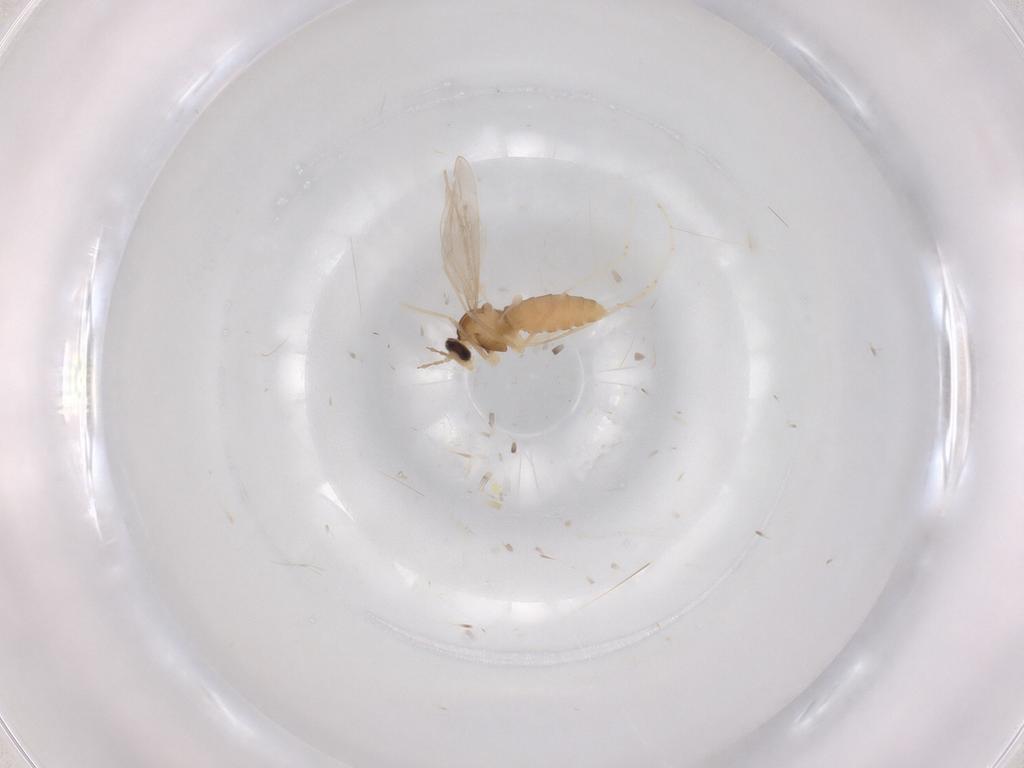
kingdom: Animalia
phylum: Arthropoda
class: Insecta
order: Diptera
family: Cecidomyiidae
